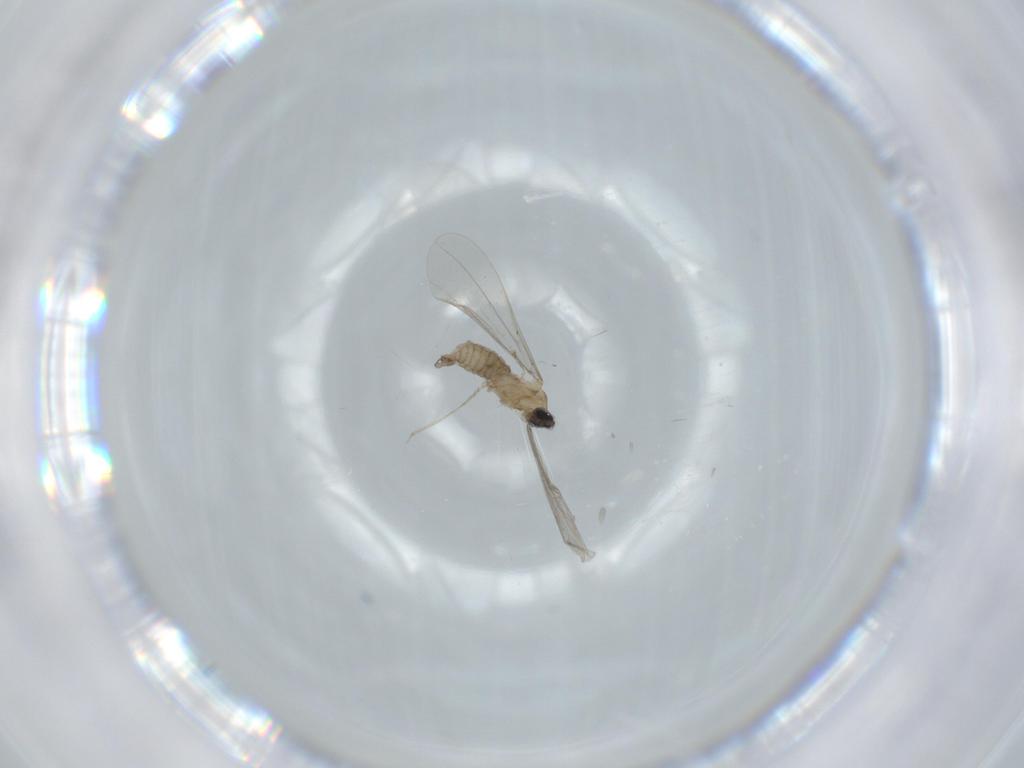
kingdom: Animalia
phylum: Arthropoda
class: Insecta
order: Diptera
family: Cecidomyiidae
